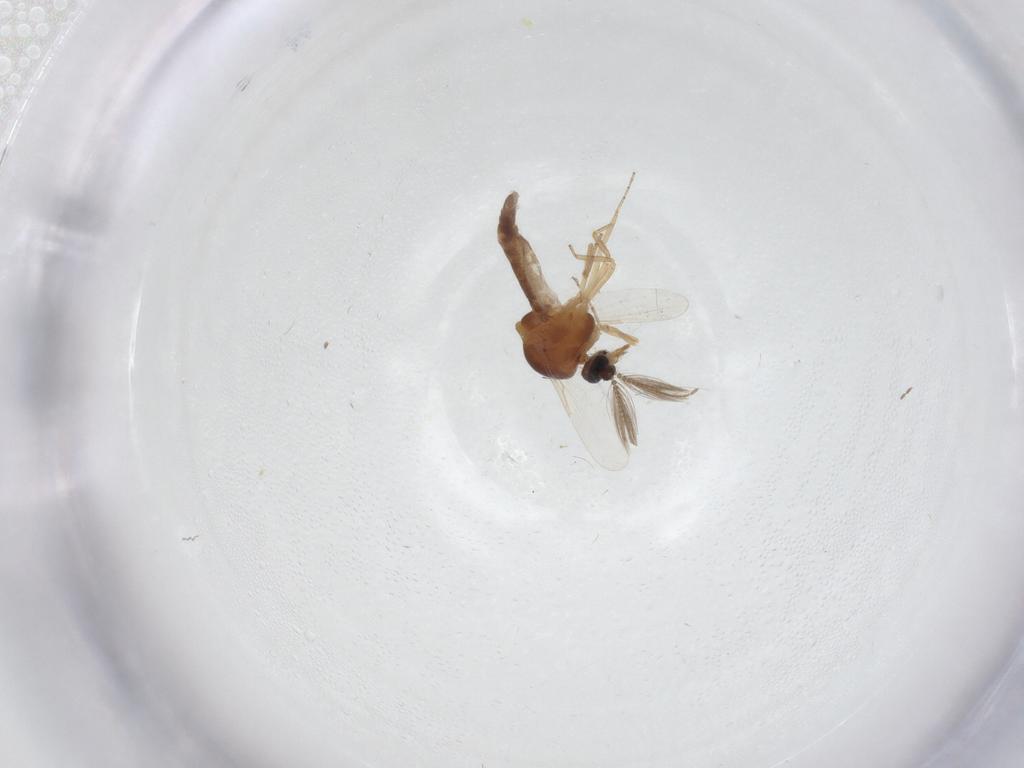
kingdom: Animalia
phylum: Arthropoda
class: Insecta
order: Diptera
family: Ceratopogonidae
